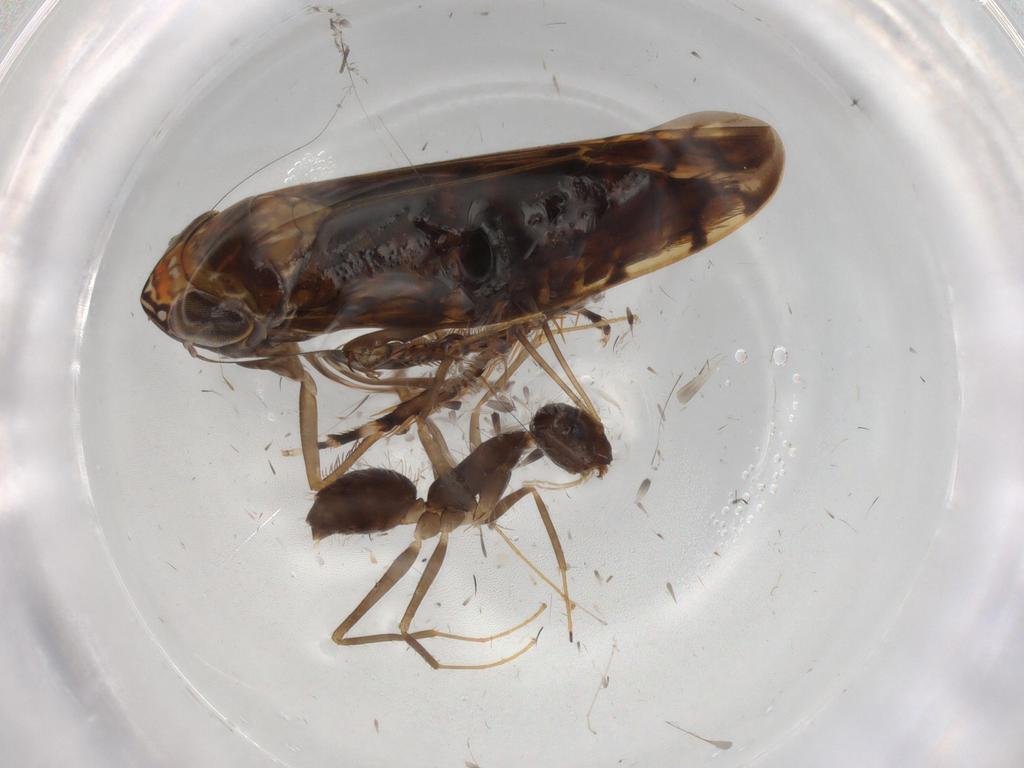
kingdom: Animalia
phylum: Arthropoda
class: Insecta
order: Hemiptera
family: Cicadellidae
